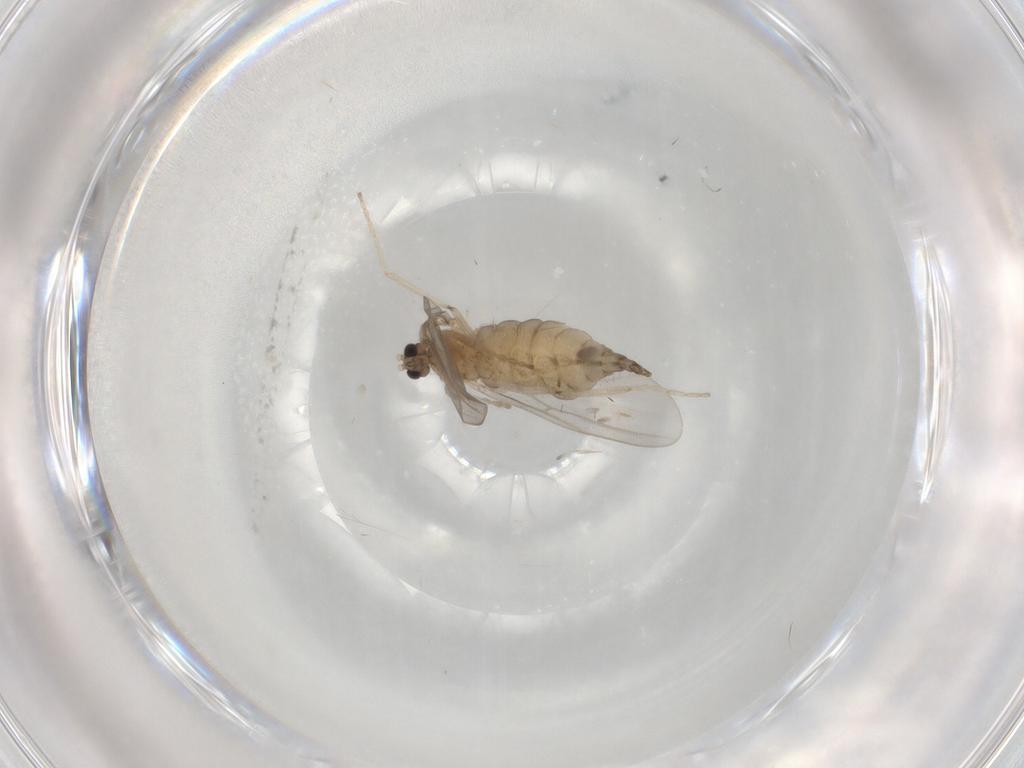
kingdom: Animalia
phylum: Arthropoda
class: Insecta
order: Diptera
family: Cecidomyiidae
